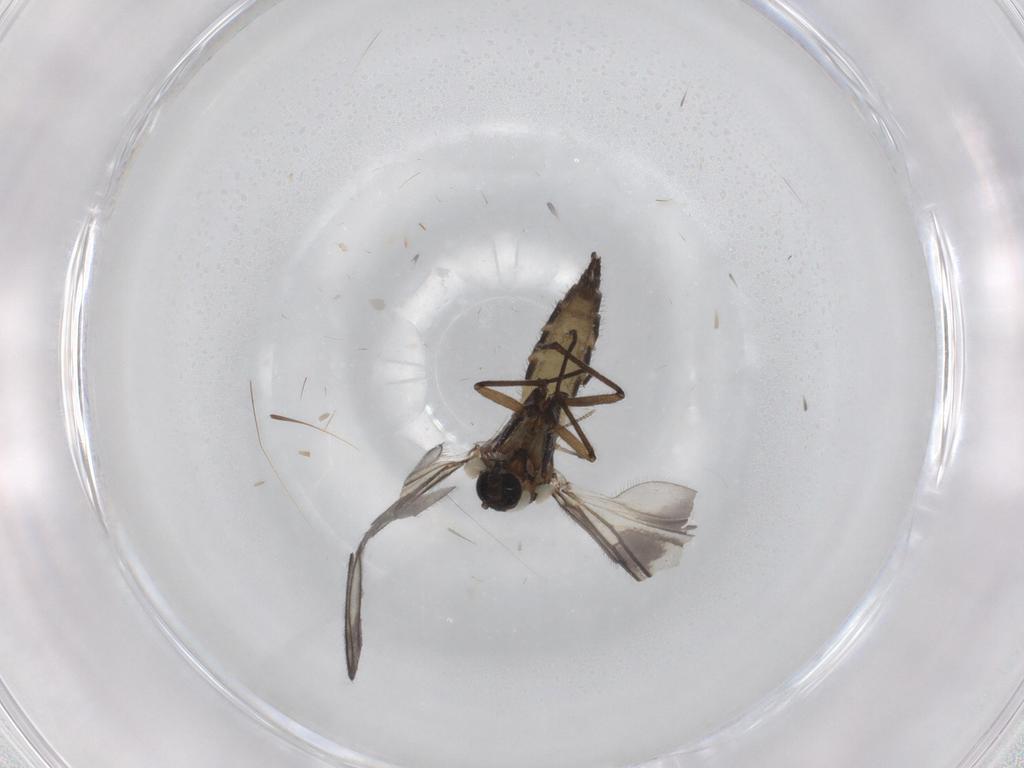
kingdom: Animalia
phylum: Arthropoda
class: Insecta
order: Diptera
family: Sciaridae
